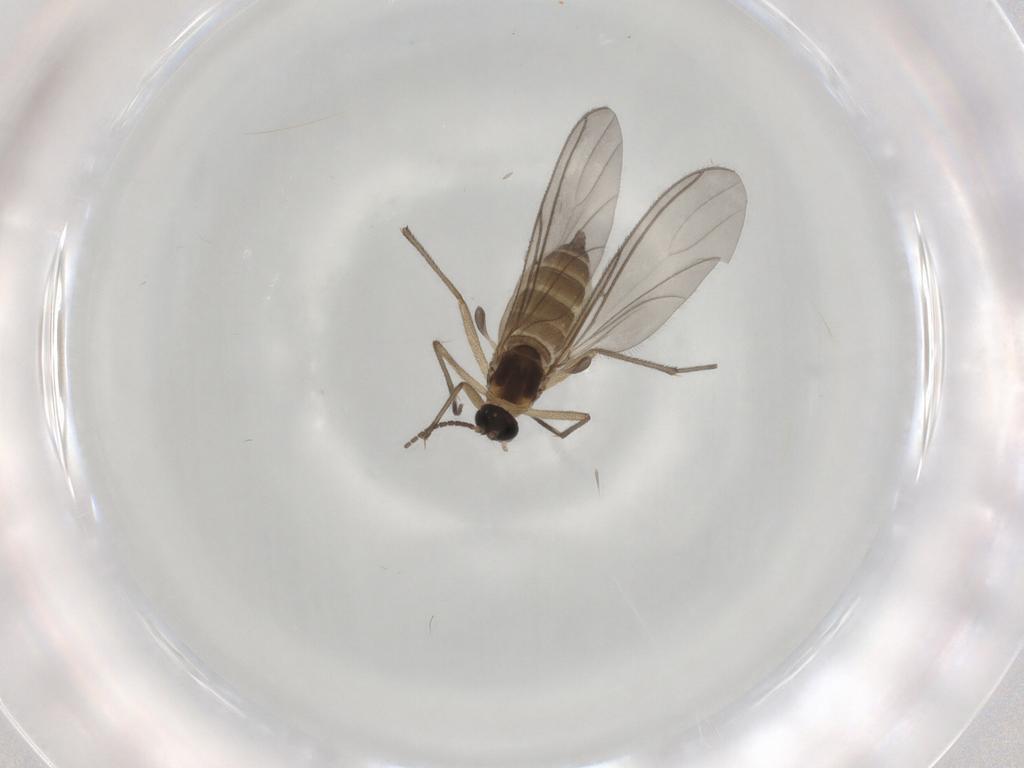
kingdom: Animalia
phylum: Arthropoda
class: Insecta
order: Diptera
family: Sciaridae
